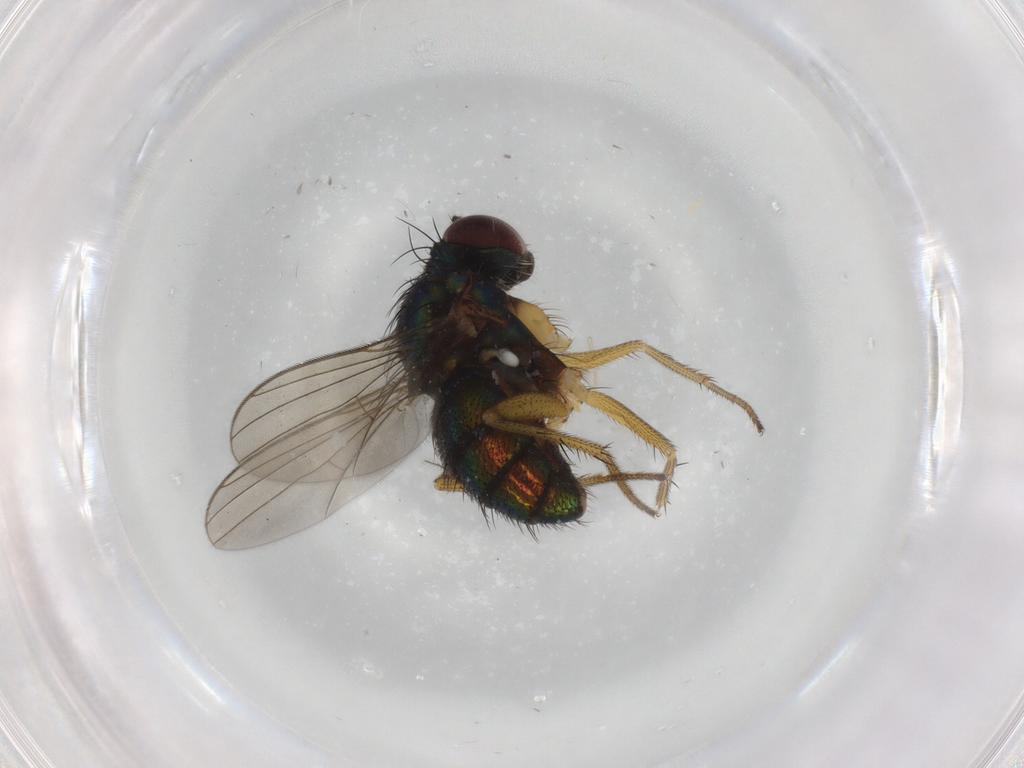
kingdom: Animalia
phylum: Arthropoda
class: Insecta
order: Diptera
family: Dolichopodidae
